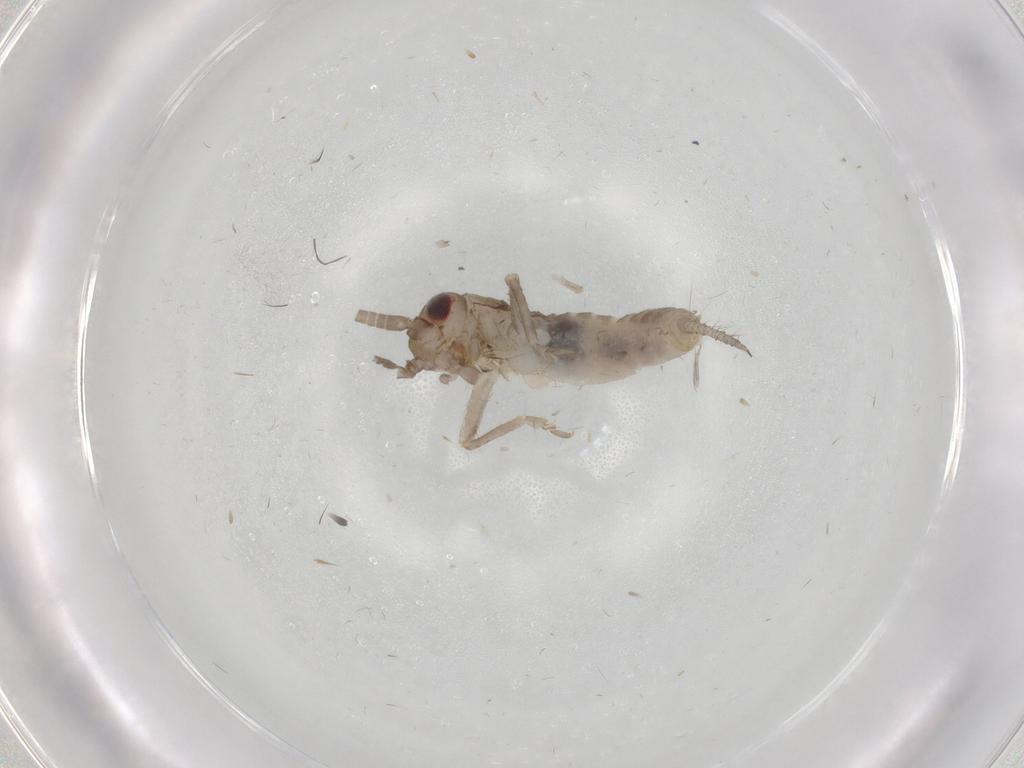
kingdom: Animalia
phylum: Arthropoda
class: Insecta
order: Orthoptera
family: Gryllidae
